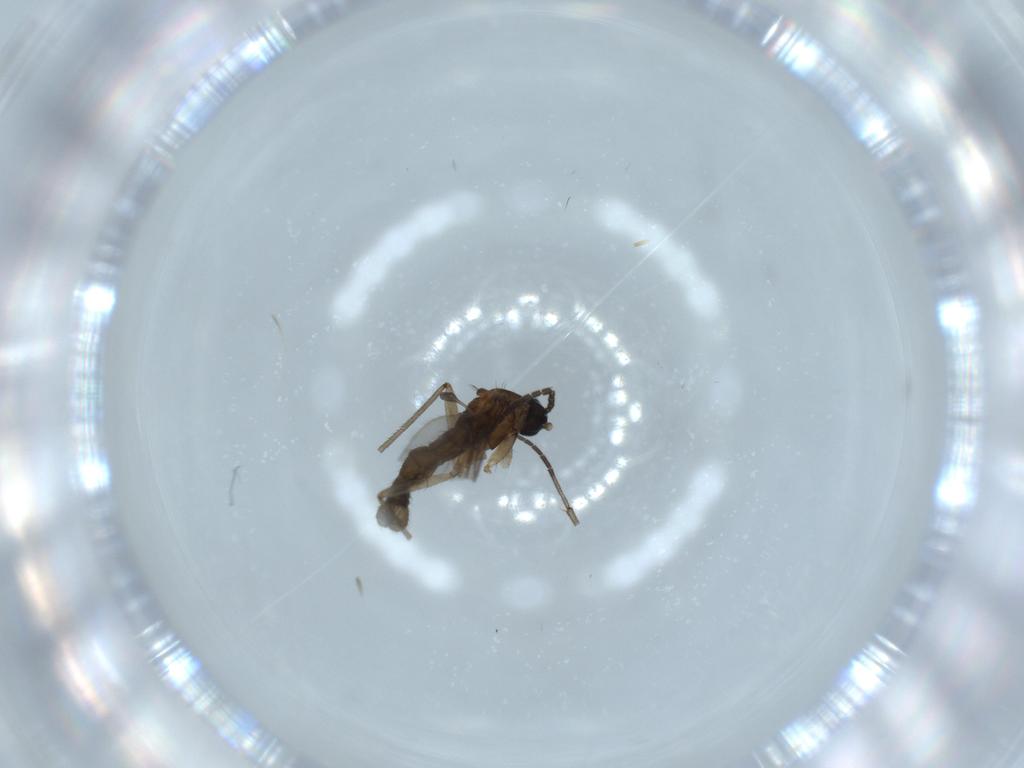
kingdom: Animalia
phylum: Arthropoda
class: Insecta
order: Diptera
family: Sciaridae
